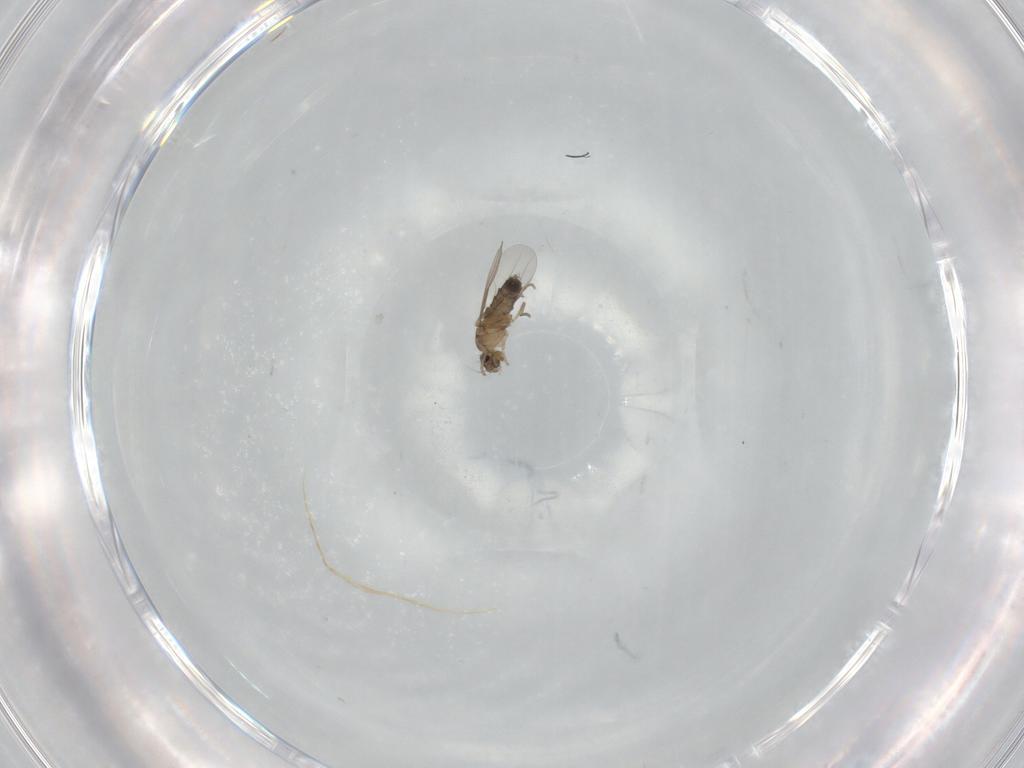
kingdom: Animalia
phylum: Arthropoda
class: Insecta
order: Diptera
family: Phoridae
